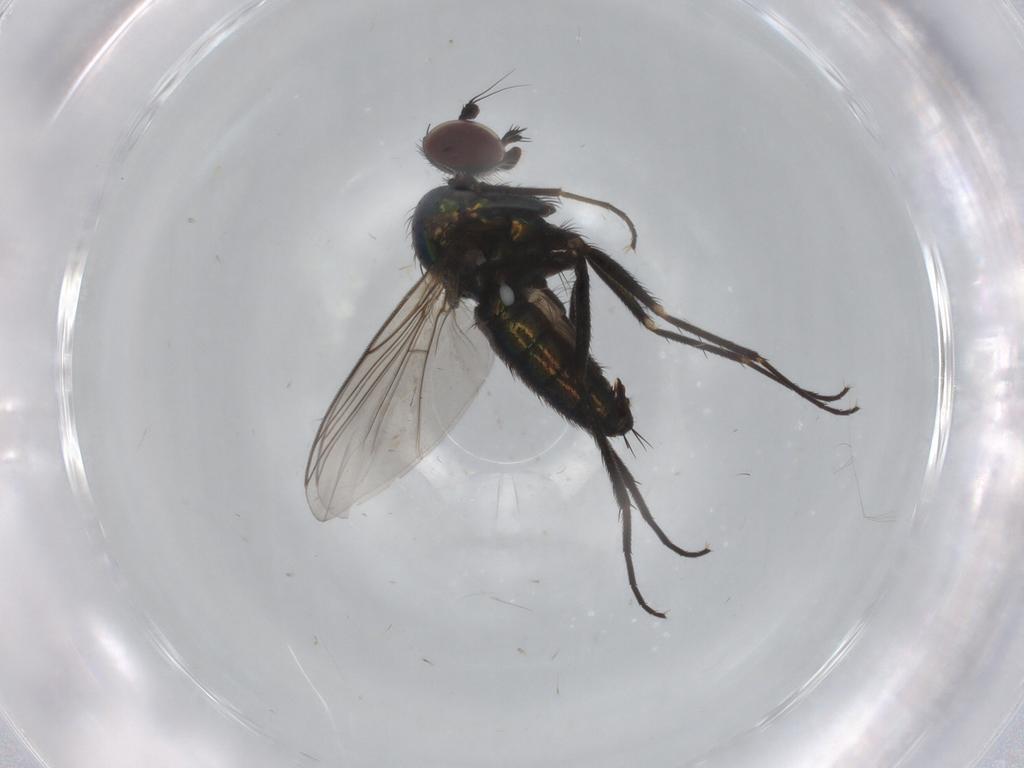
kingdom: Animalia
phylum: Arthropoda
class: Insecta
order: Diptera
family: Dolichopodidae
